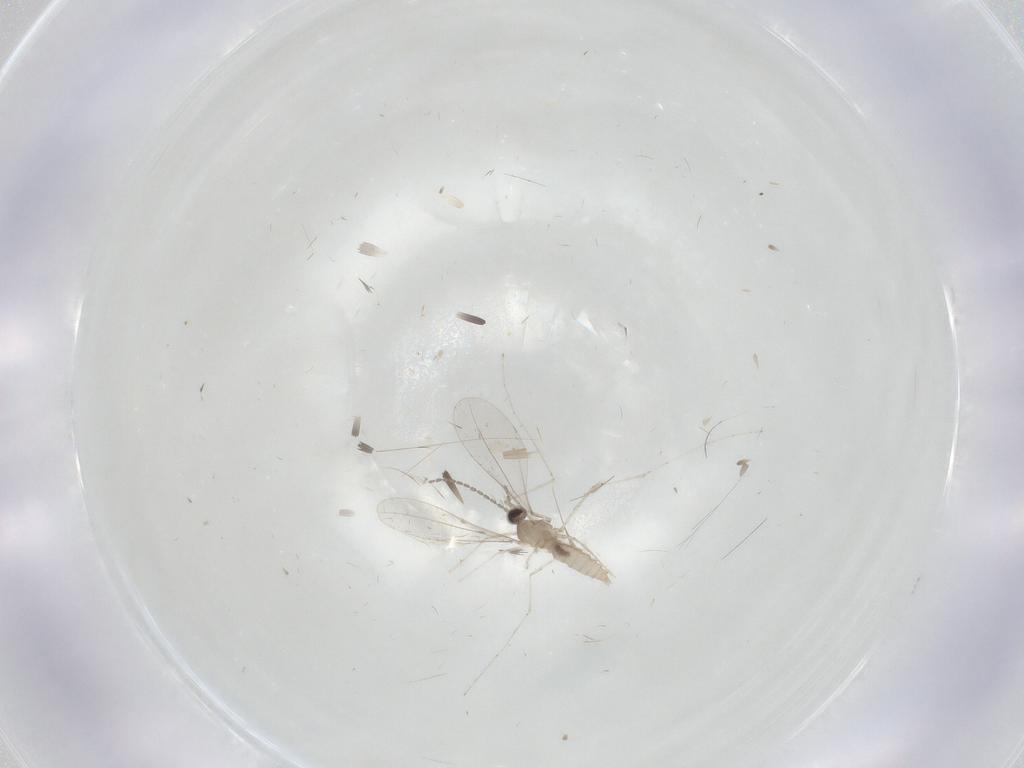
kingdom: Animalia
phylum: Arthropoda
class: Insecta
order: Diptera
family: Cecidomyiidae
